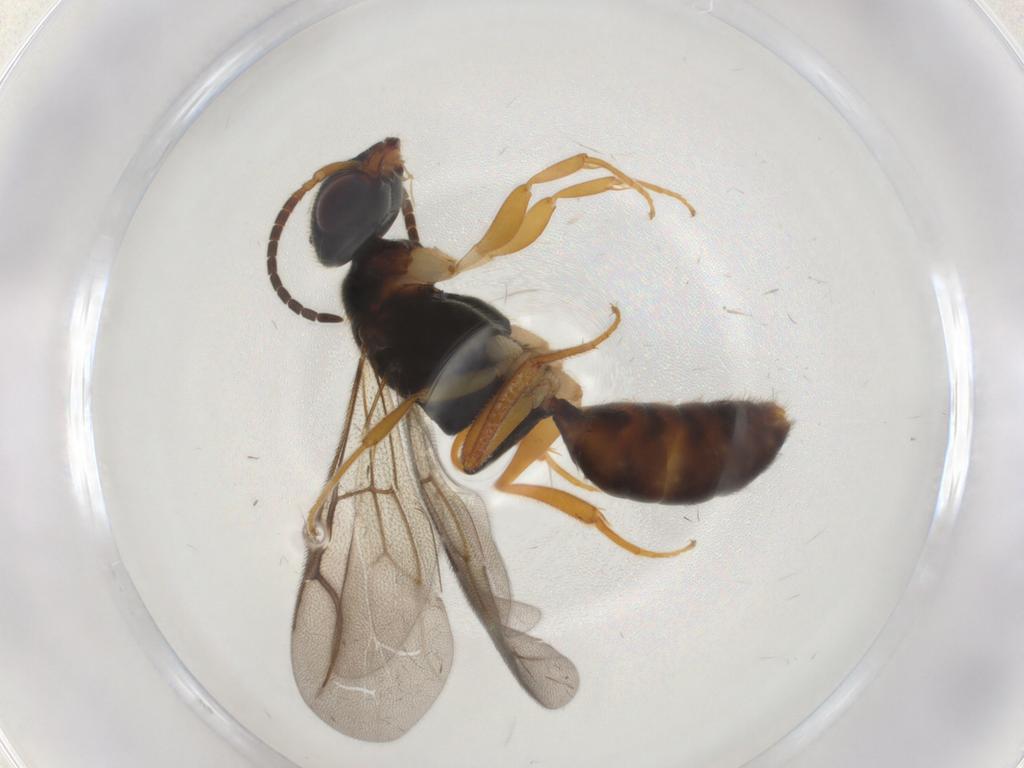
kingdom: Animalia
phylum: Arthropoda
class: Insecta
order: Hymenoptera
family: Bethylidae
